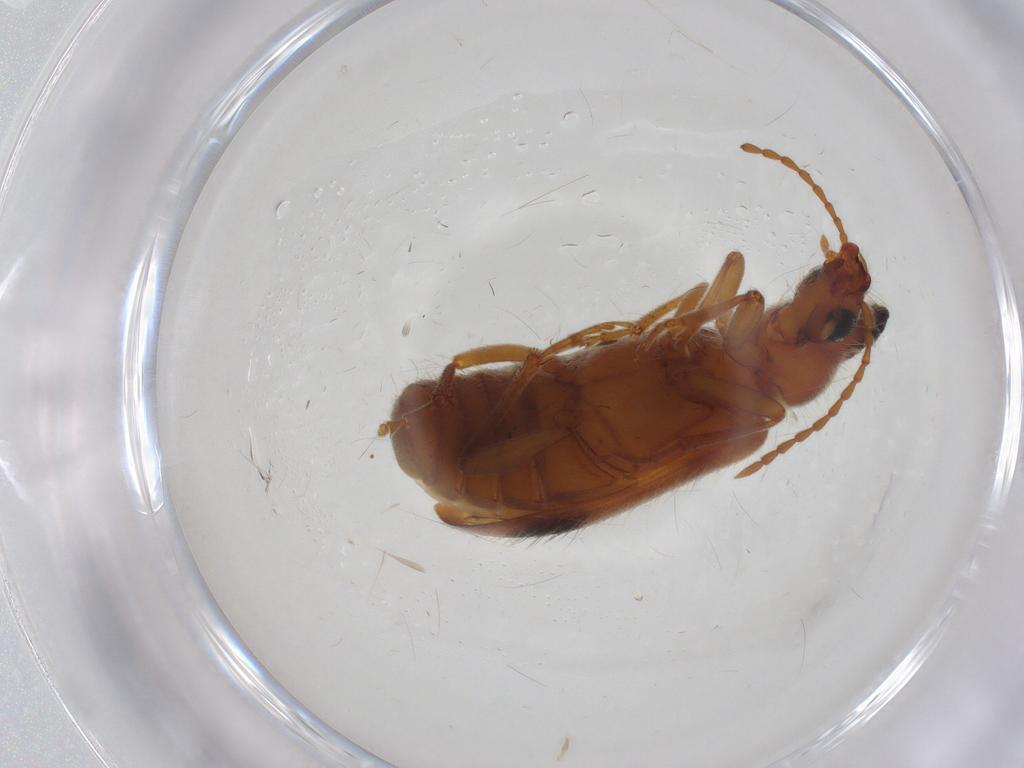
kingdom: Animalia
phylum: Arthropoda
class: Insecta
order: Coleoptera
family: Anthicidae
